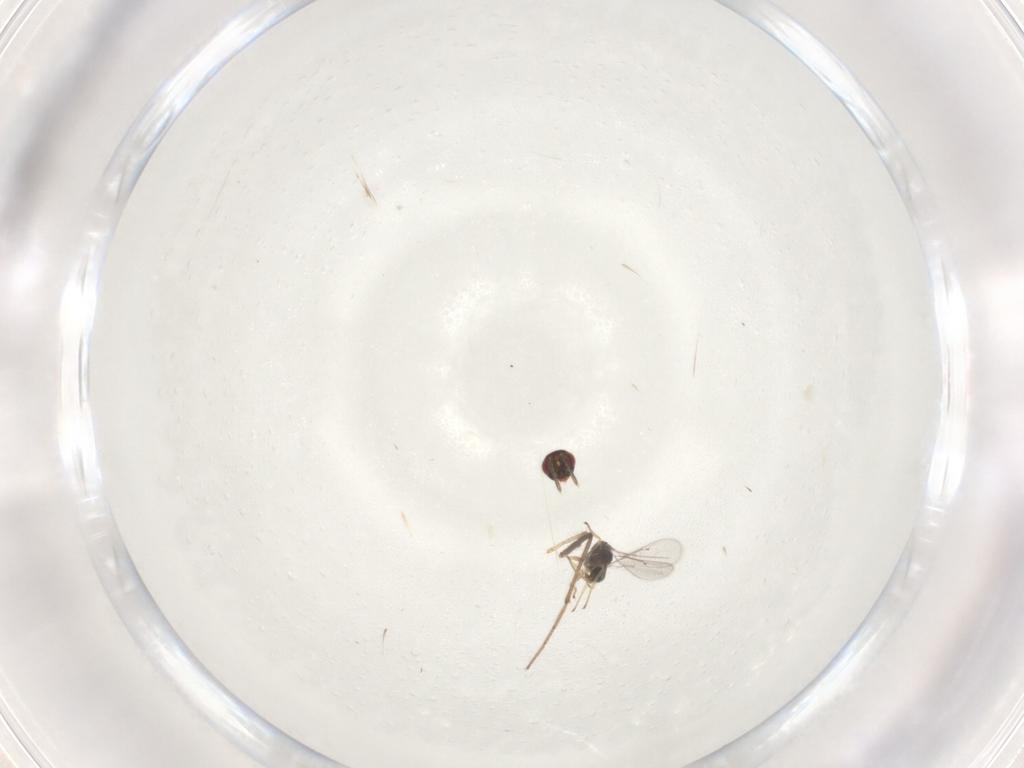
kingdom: Animalia
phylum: Arthropoda
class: Insecta
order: Hymenoptera
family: Eulophidae
